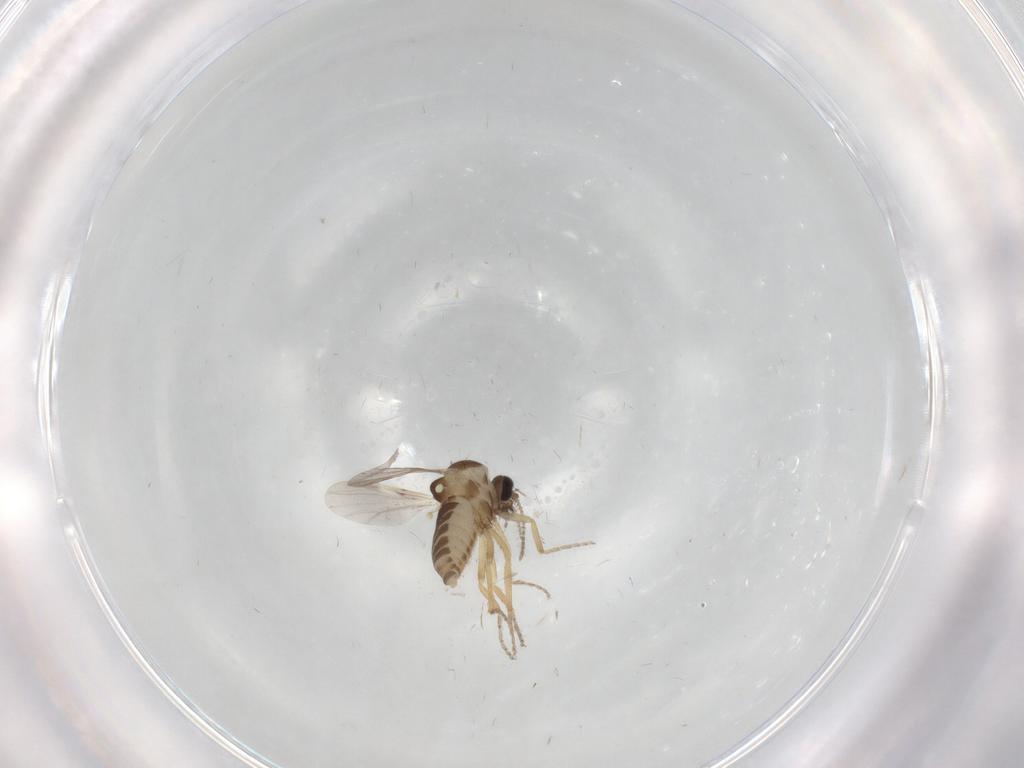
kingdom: Animalia
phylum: Arthropoda
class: Insecta
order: Diptera
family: Ceratopogonidae
